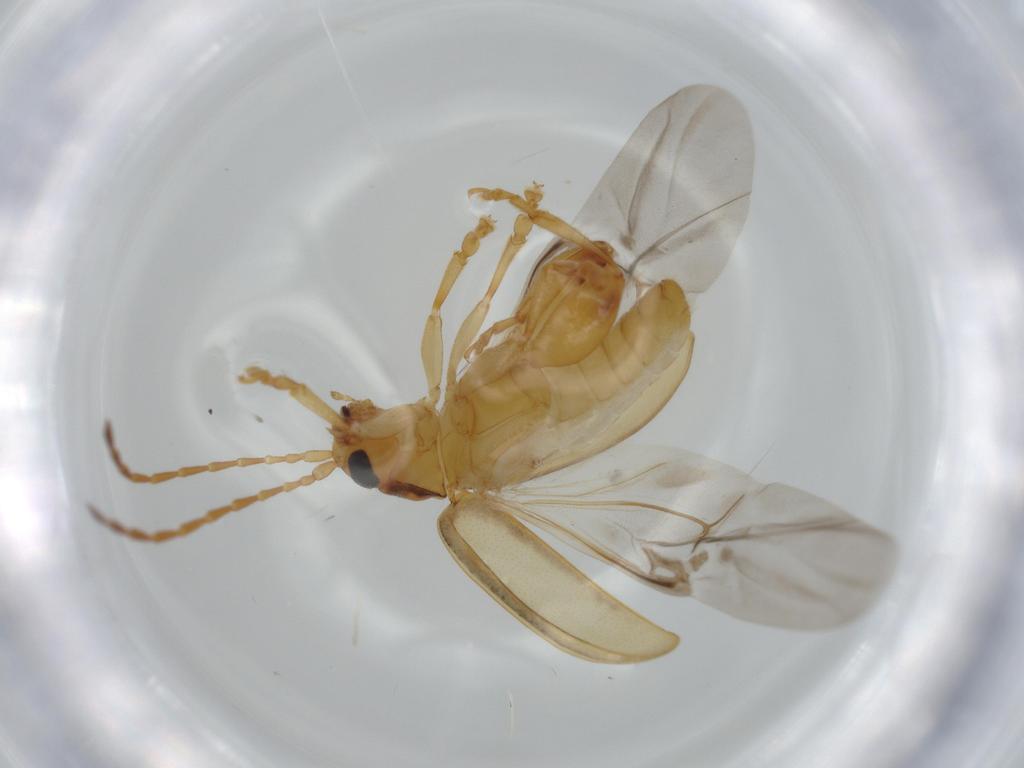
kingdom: Animalia
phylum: Arthropoda
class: Insecta
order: Coleoptera
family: Chrysomelidae
